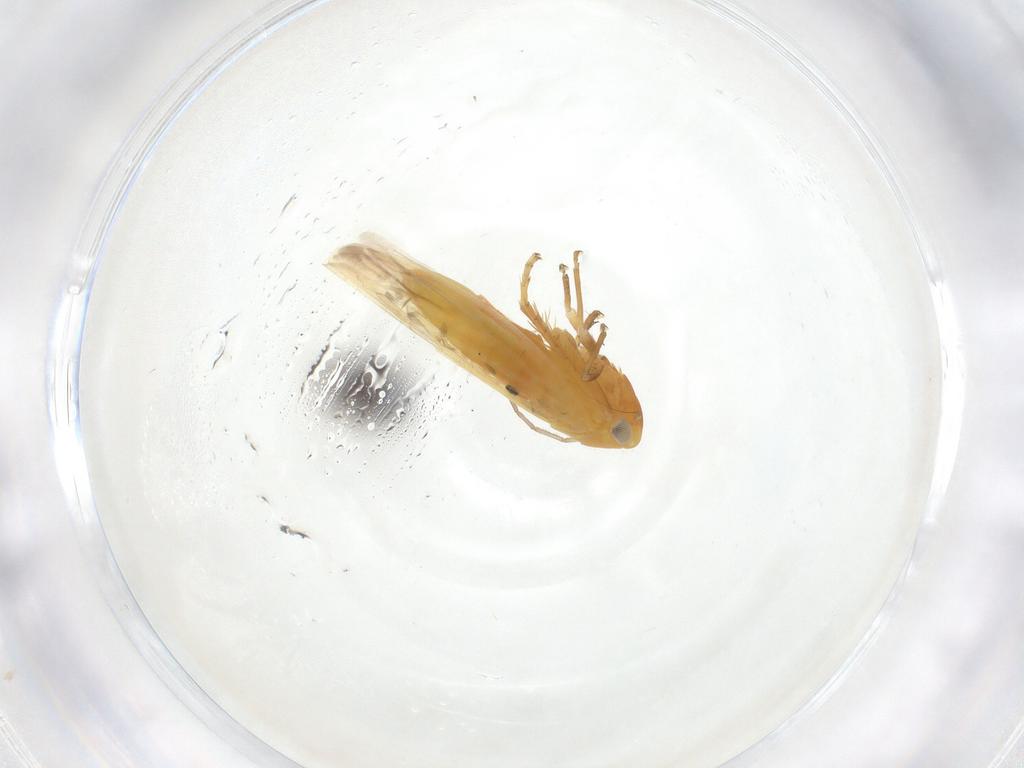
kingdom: Animalia
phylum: Arthropoda
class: Insecta
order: Hemiptera
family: Cicadellidae
